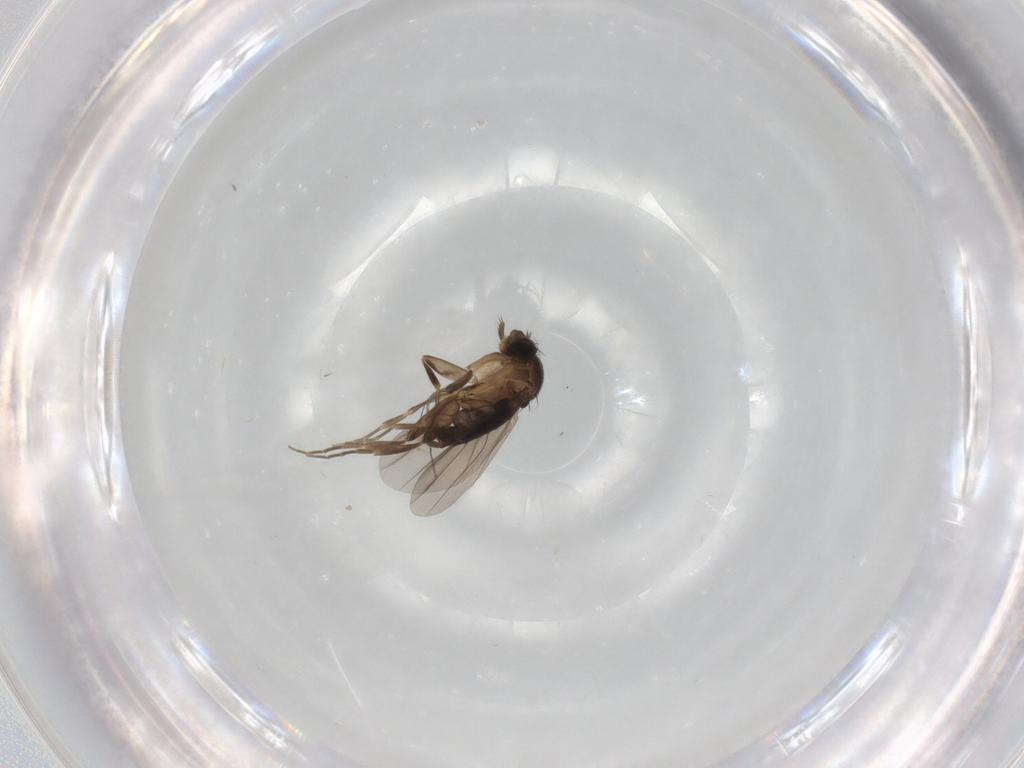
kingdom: Animalia
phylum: Arthropoda
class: Insecta
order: Diptera
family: Phoridae
